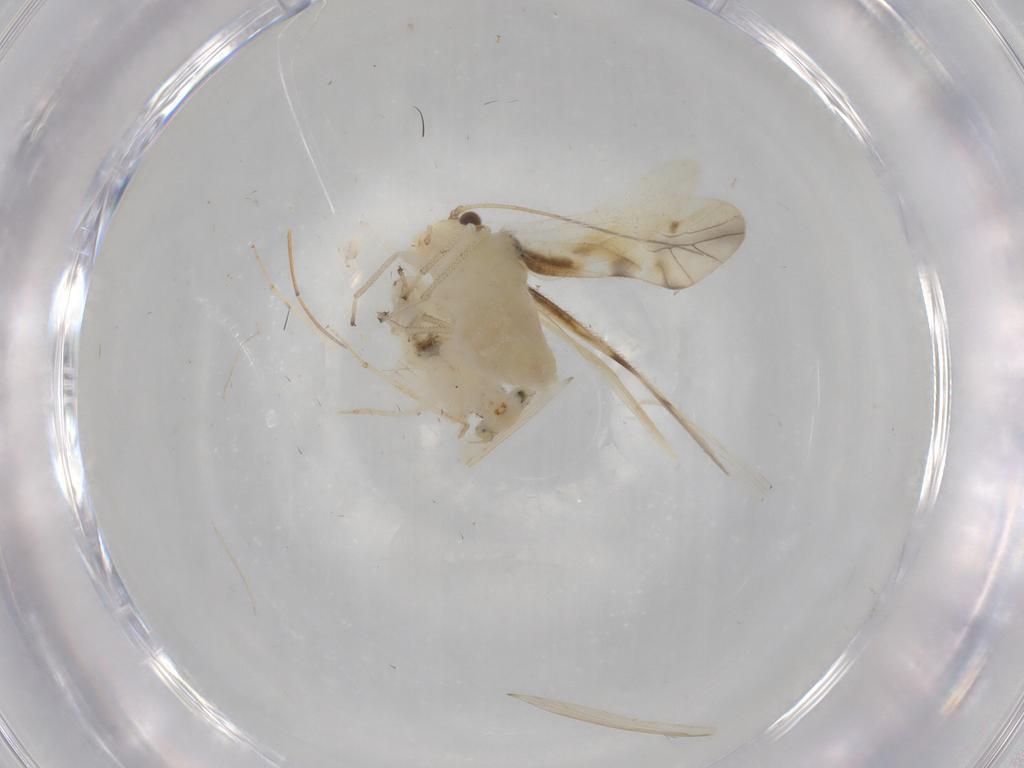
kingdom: Animalia
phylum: Arthropoda
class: Insecta
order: Psocodea
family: Caeciliusidae
